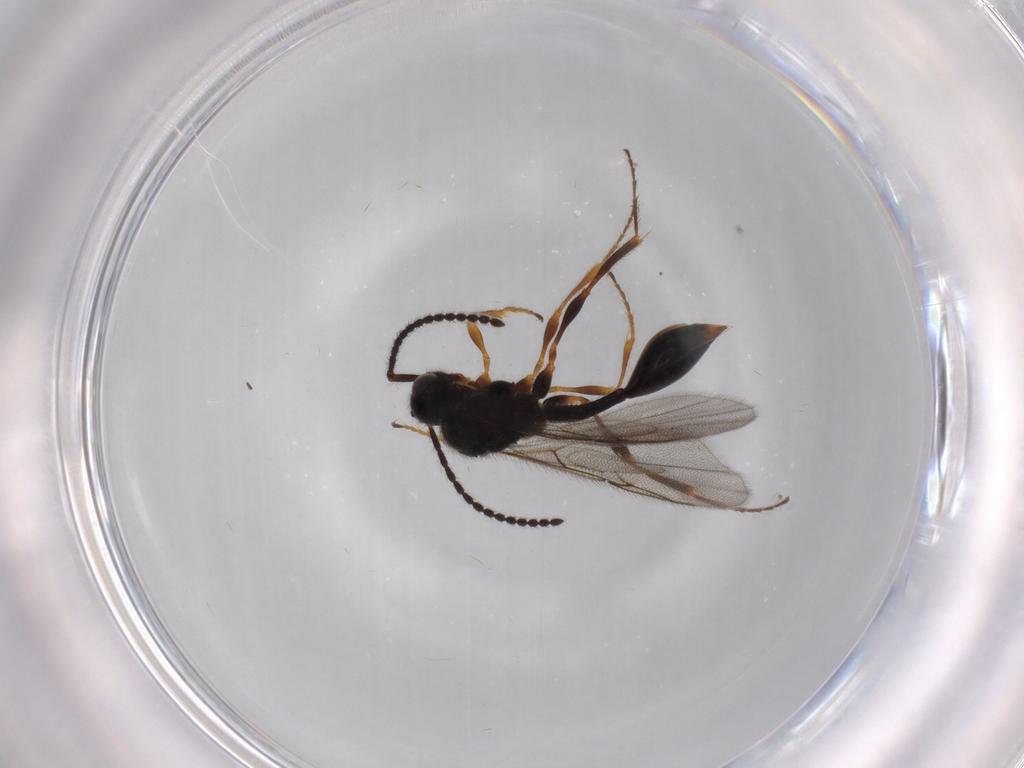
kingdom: Animalia
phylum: Arthropoda
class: Insecta
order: Hymenoptera
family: Diapriidae
